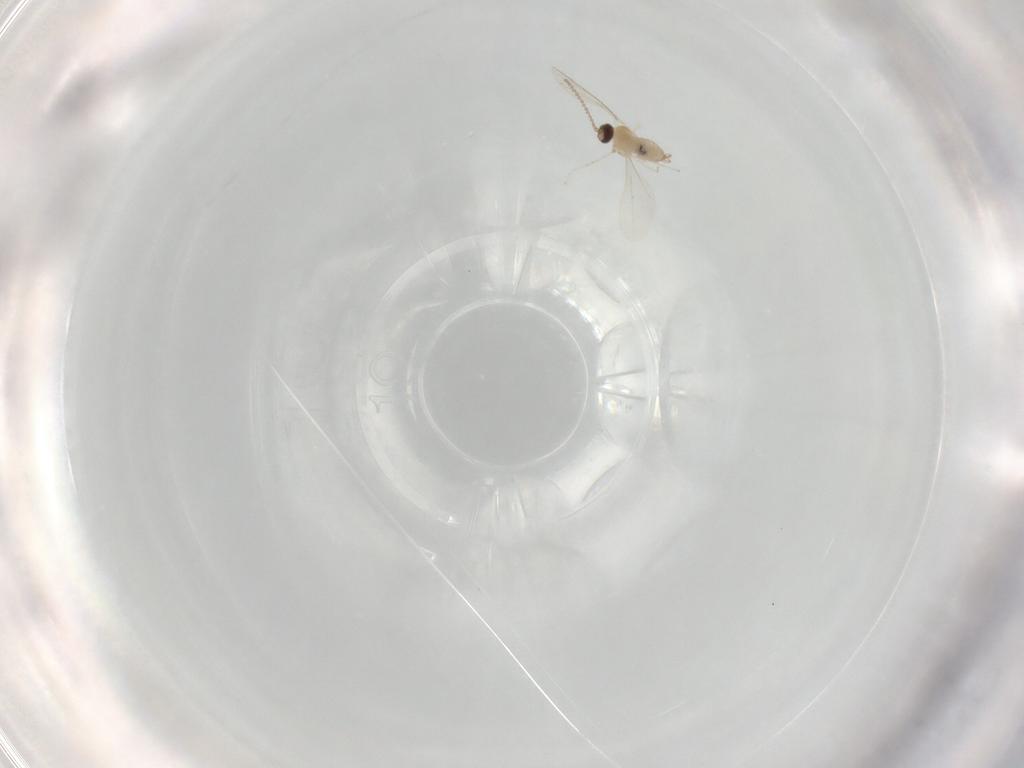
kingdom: Animalia
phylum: Arthropoda
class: Insecta
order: Diptera
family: Cecidomyiidae
